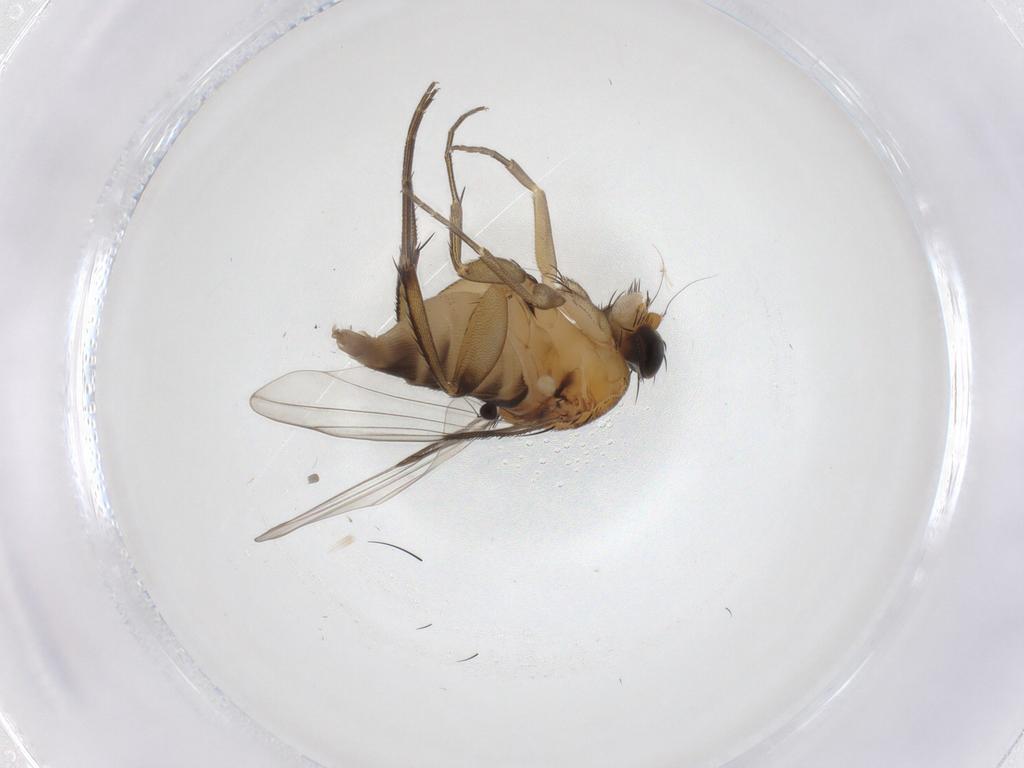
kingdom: Animalia
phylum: Arthropoda
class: Insecta
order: Diptera
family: Phoridae
